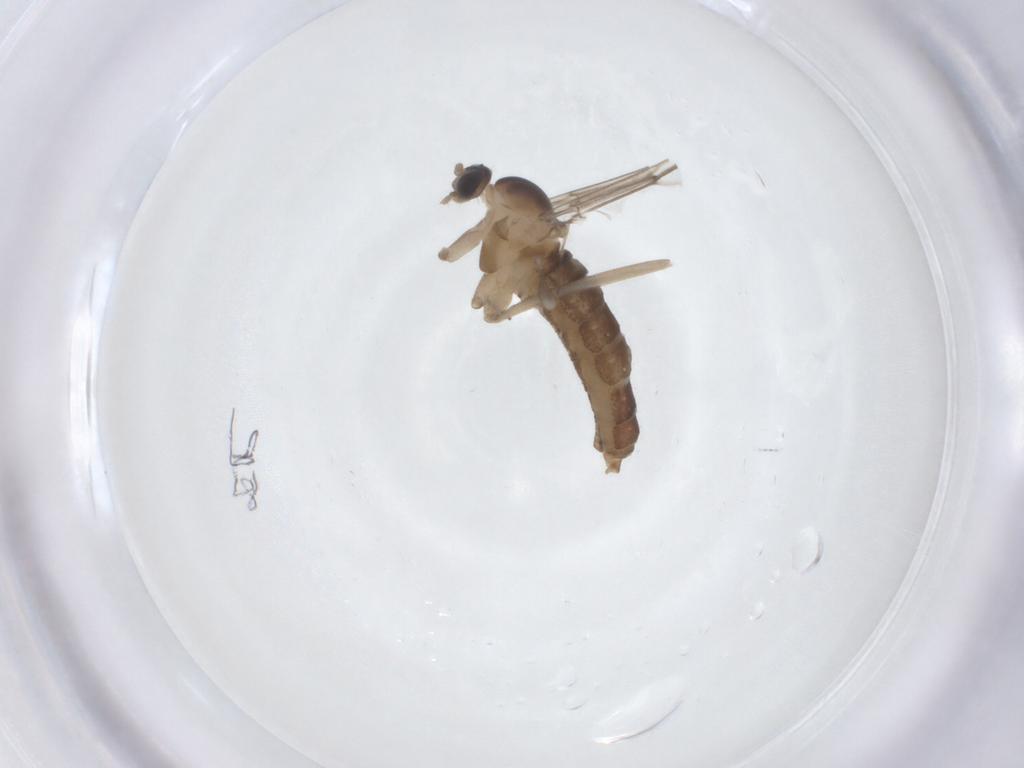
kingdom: Animalia
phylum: Arthropoda
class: Insecta
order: Diptera
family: Cecidomyiidae
